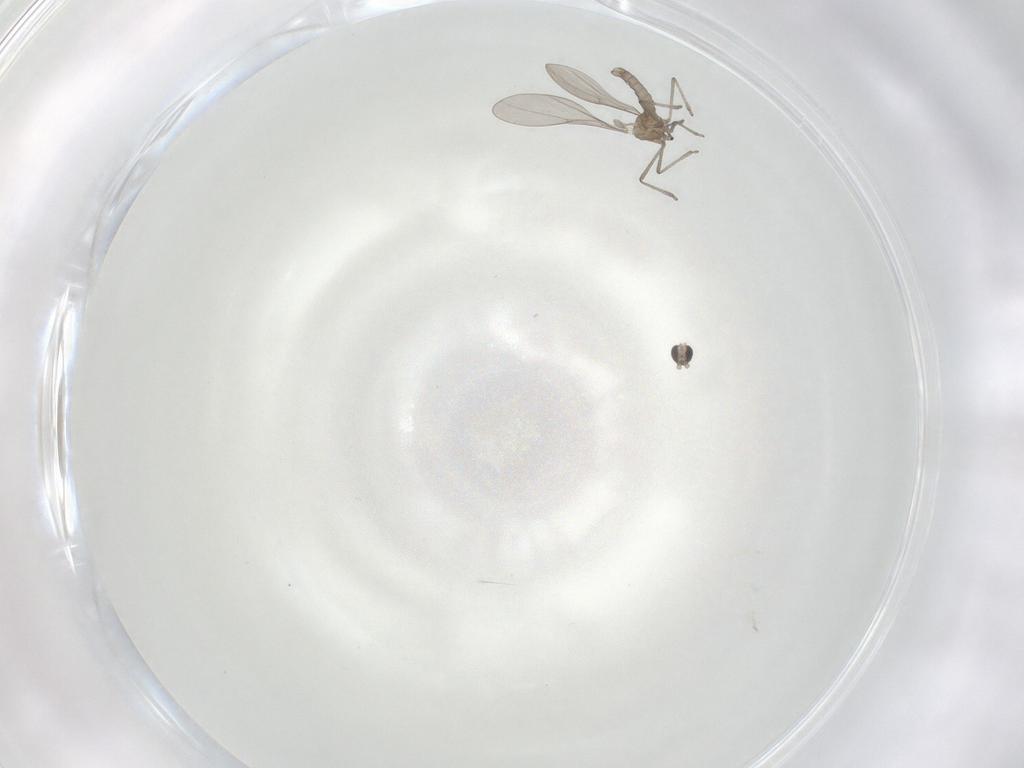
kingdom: Animalia
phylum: Arthropoda
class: Insecta
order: Diptera
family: Cecidomyiidae
